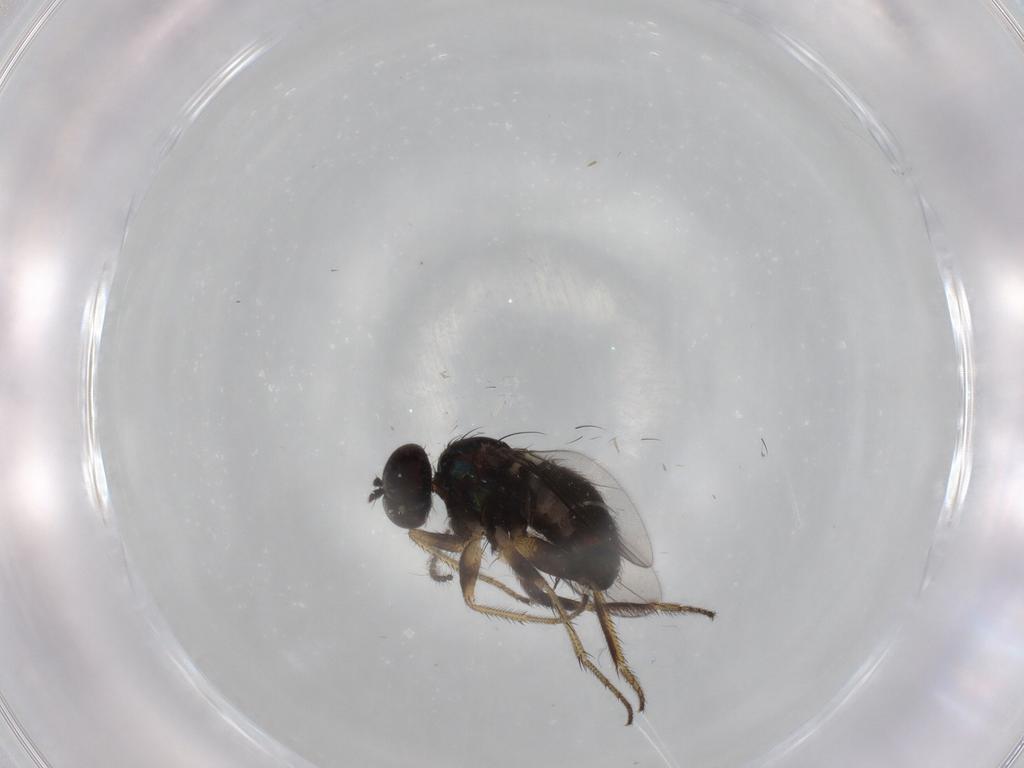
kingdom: Animalia
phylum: Arthropoda
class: Insecta
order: Diptera
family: Dolichopodidae
